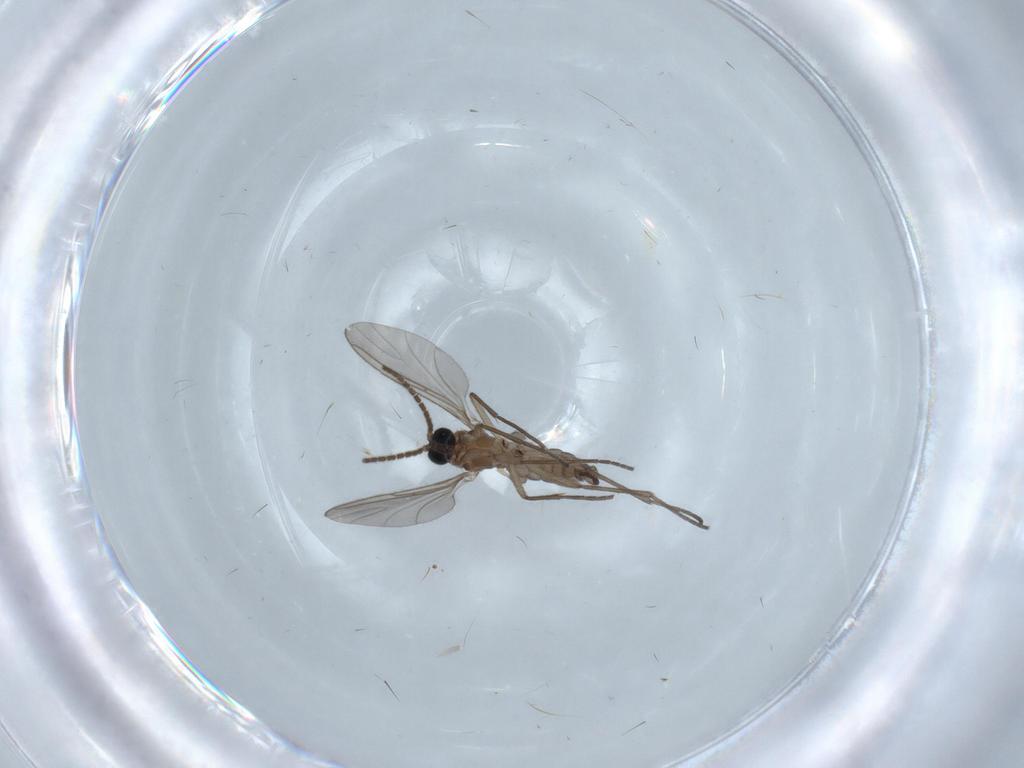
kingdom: Animalia
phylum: Arthropoda
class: Insecta
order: Diptera
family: Sciaridae
